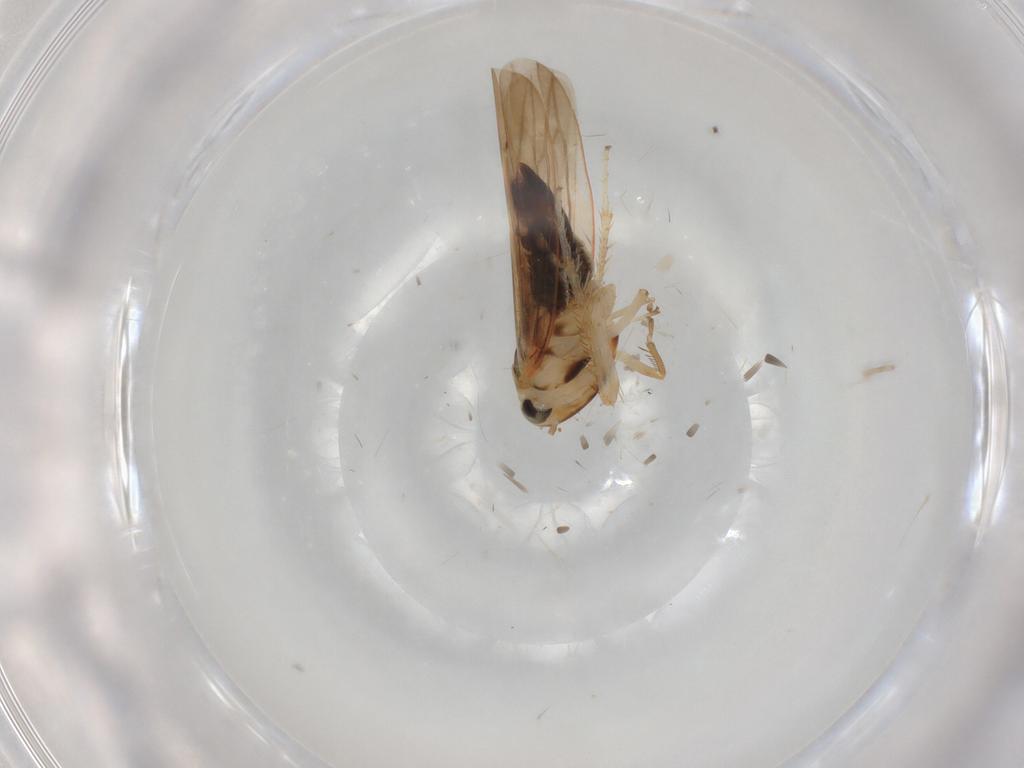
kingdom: Animalia
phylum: Arthropoda
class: Insecta
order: Hemiptera
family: Cicadellidae
